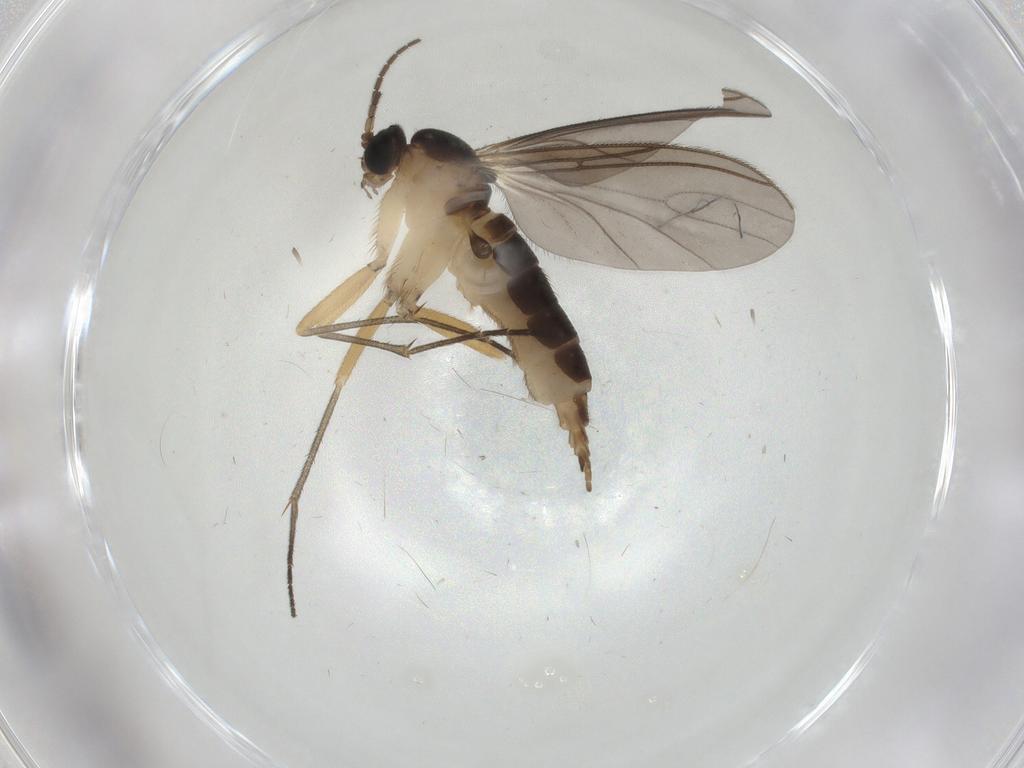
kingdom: Animalia
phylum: Arthropoda
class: Insecta
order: Diptera
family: Sciaridae
